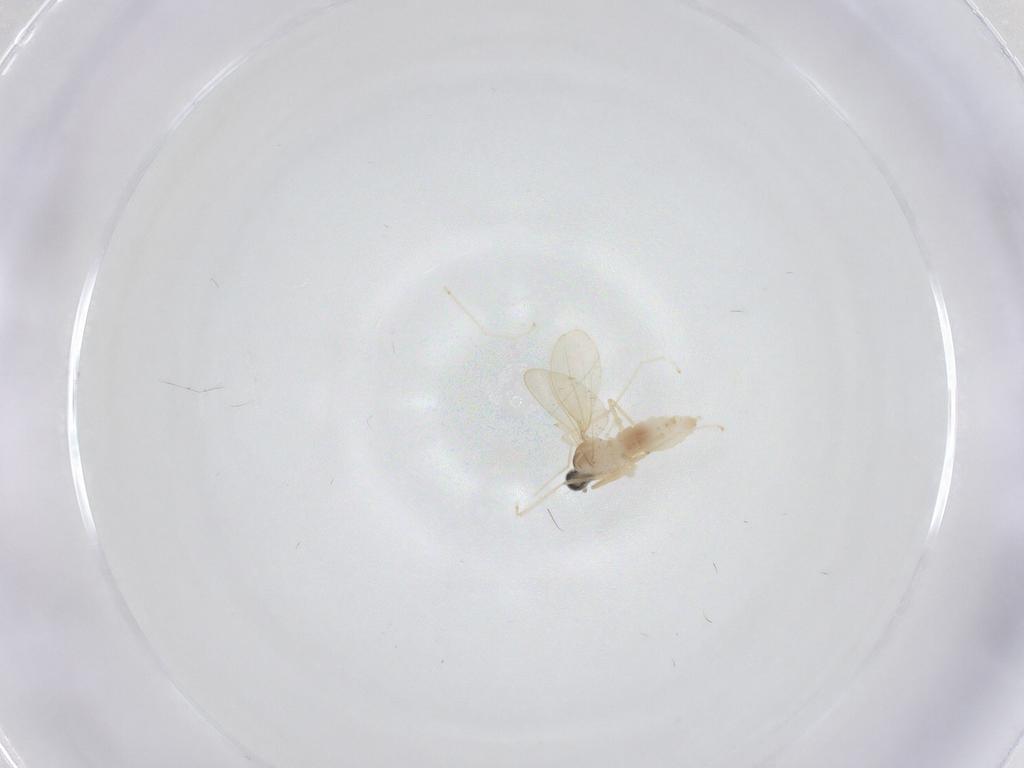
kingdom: Animalia
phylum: Arthropoda
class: Insecta
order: Diptera
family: Cecidomyiidae
